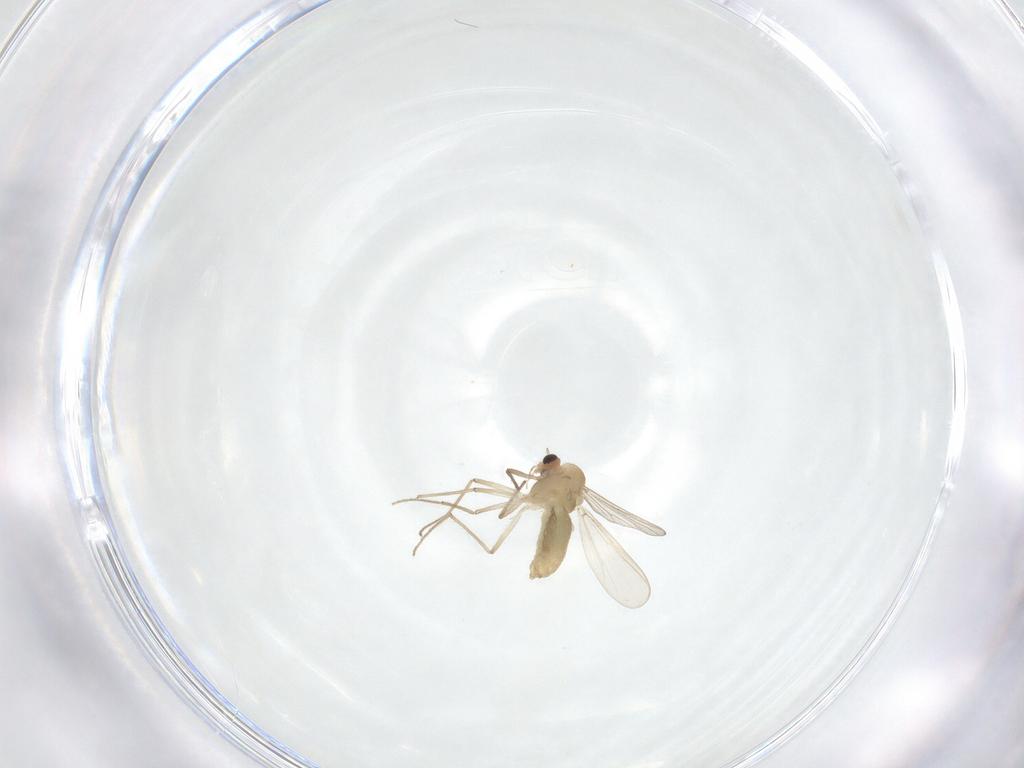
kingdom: Animalia
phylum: Arthropoda
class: Insecta
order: Diptera
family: Chironomidae
